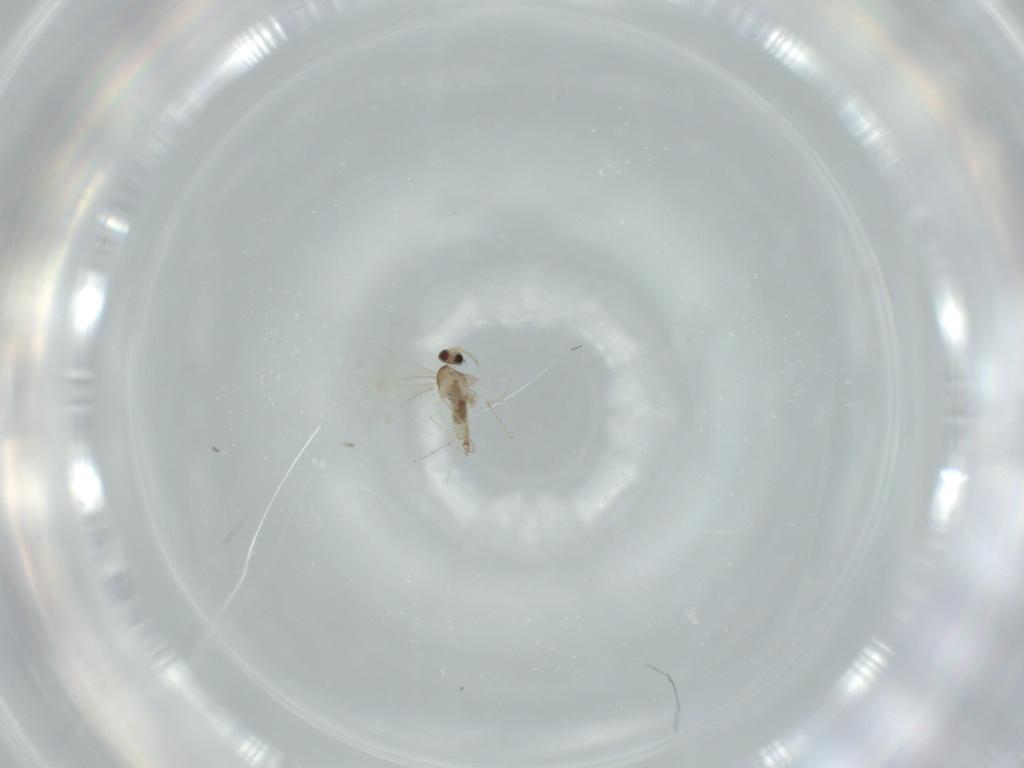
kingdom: Animalia
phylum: Arthropoda
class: Insecta
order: Diptera
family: Cecidomyiidae
